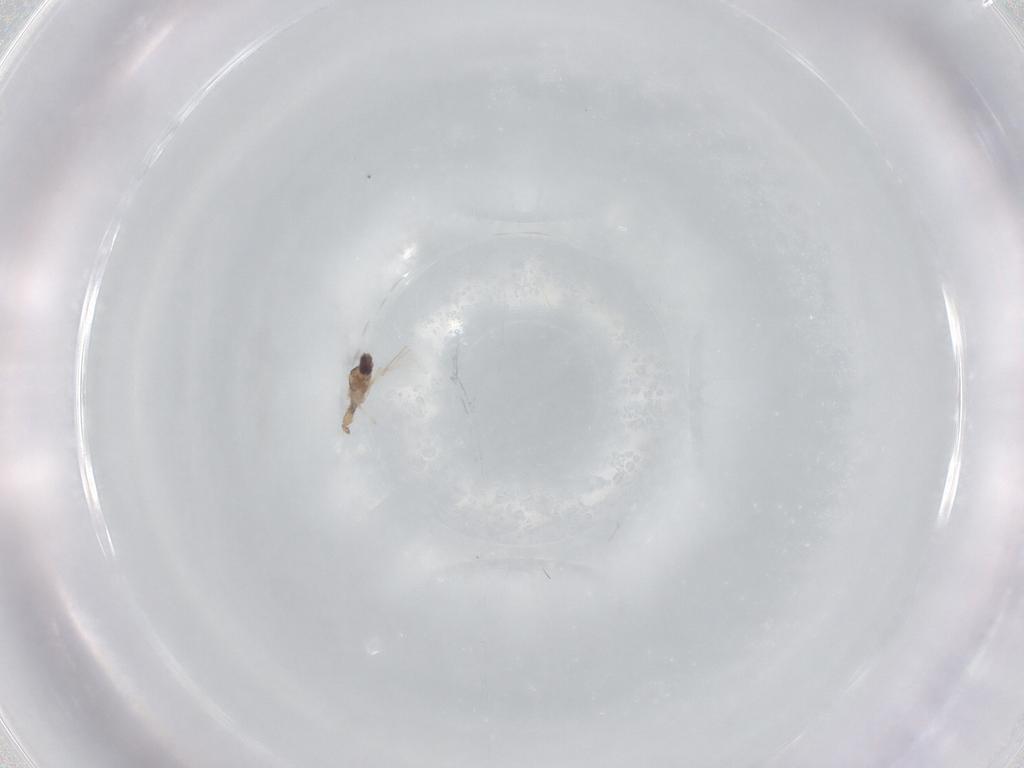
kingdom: Animalia
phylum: Arthropoda
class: Insecta
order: Diptera
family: Cecidomyiidae
